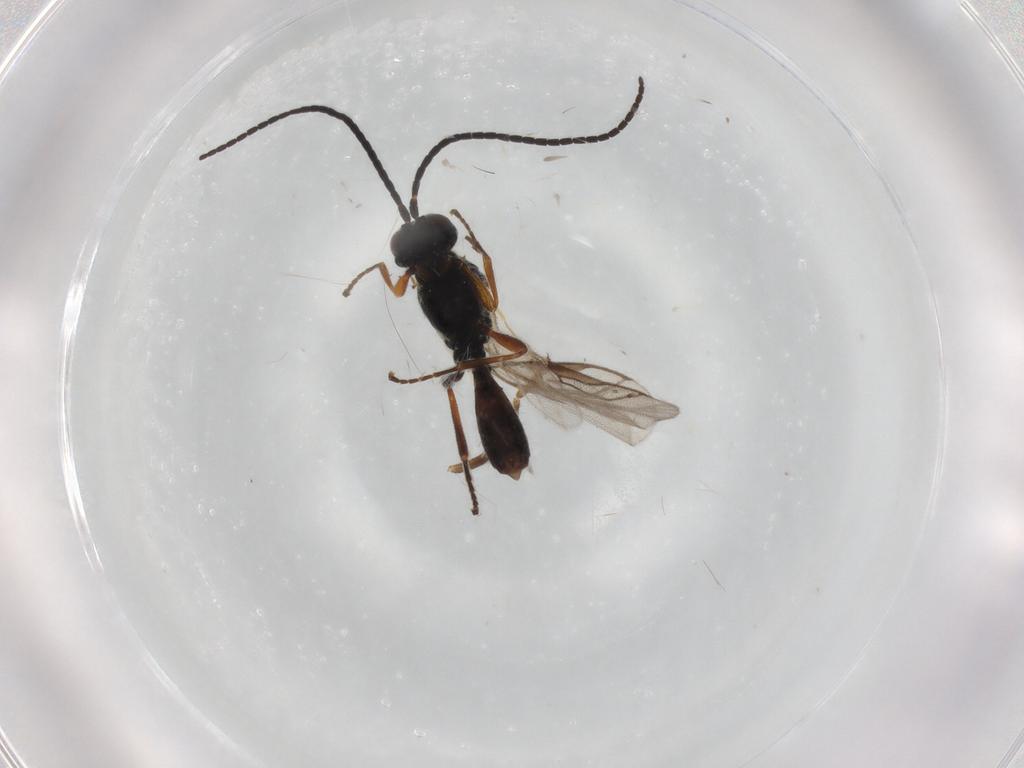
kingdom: Animalia
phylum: Arthropoda
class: Insecta
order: Hymenoptera
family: Braconidae
